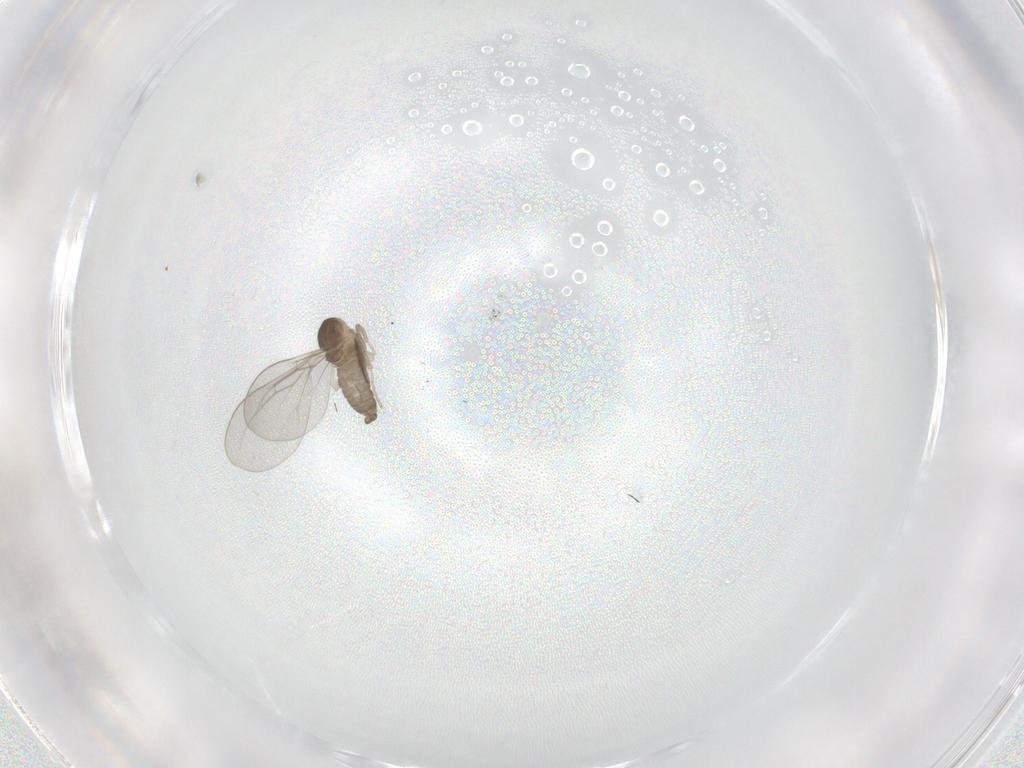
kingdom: Animalia
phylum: Arthropoda
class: Insecta
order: Diptera
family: Cecidomyiidae
